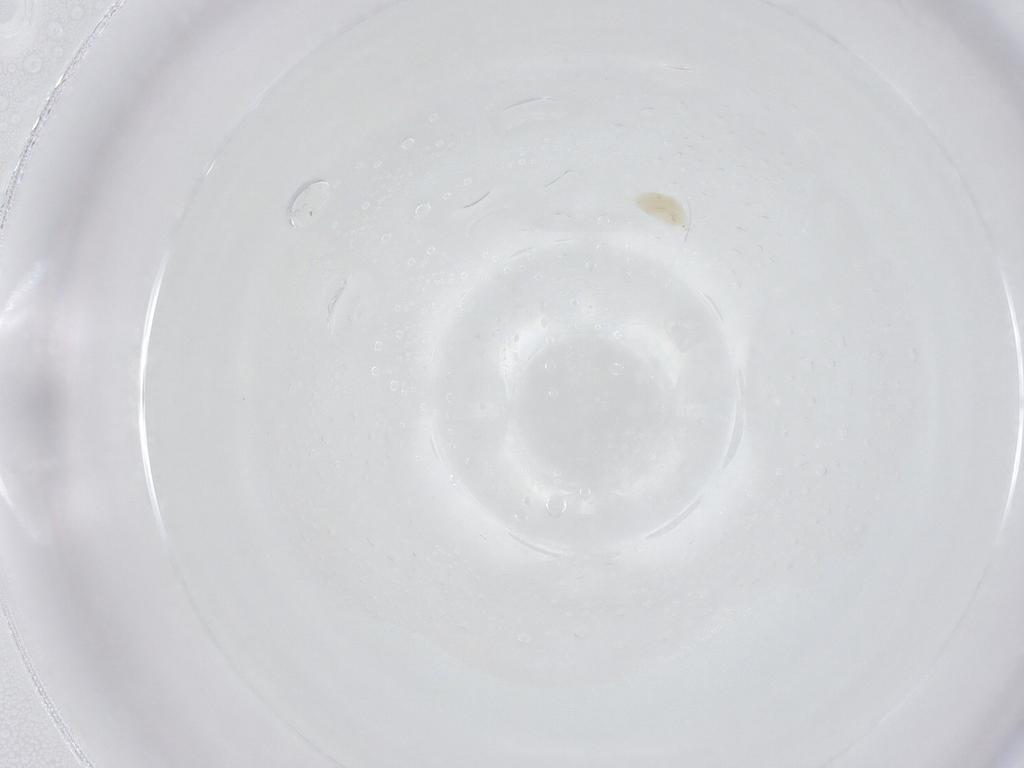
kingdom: Animalia
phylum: Arthropoda
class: Arachnida
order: Trombidiformes
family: Eupodidae
